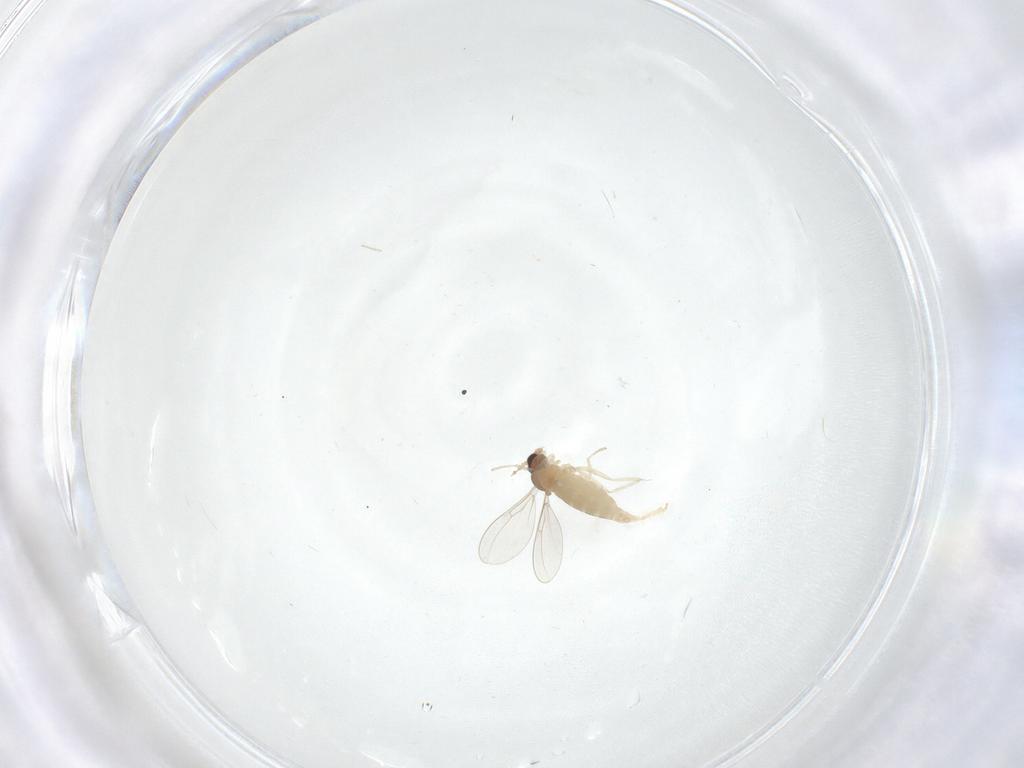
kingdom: Animalia
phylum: Arthropoda
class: Insecta
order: Diptera
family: Cecidomyiidae
